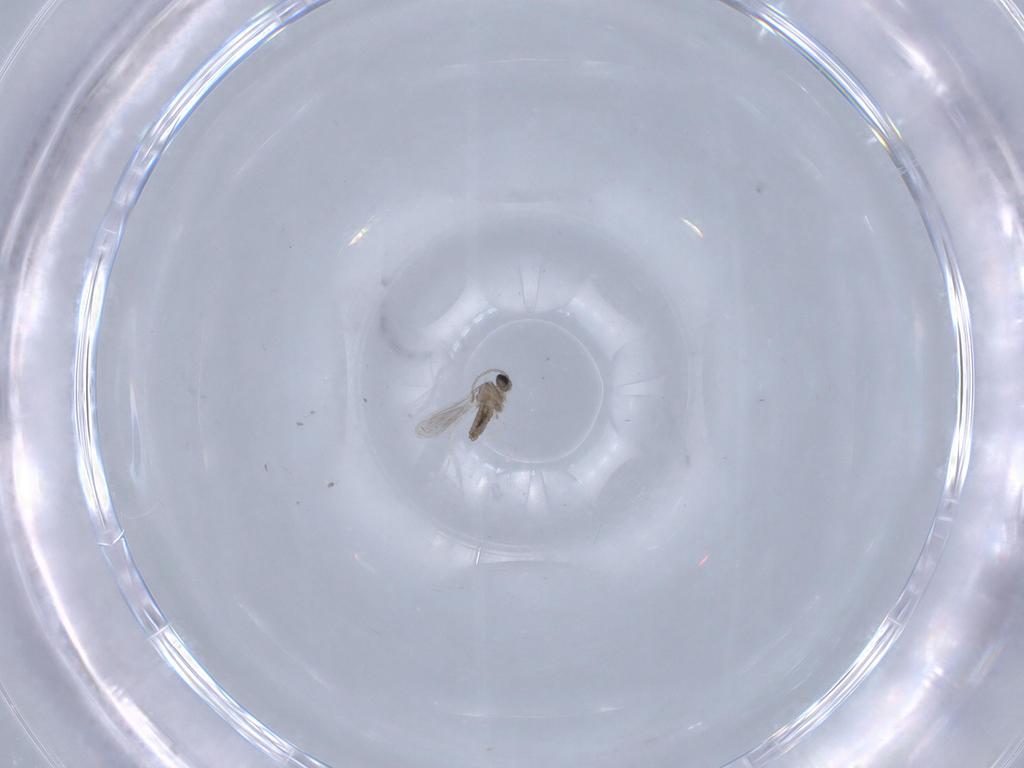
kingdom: Animalia
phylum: Arthropoda
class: Insecta
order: Diptera
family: Cecidomyiidae
